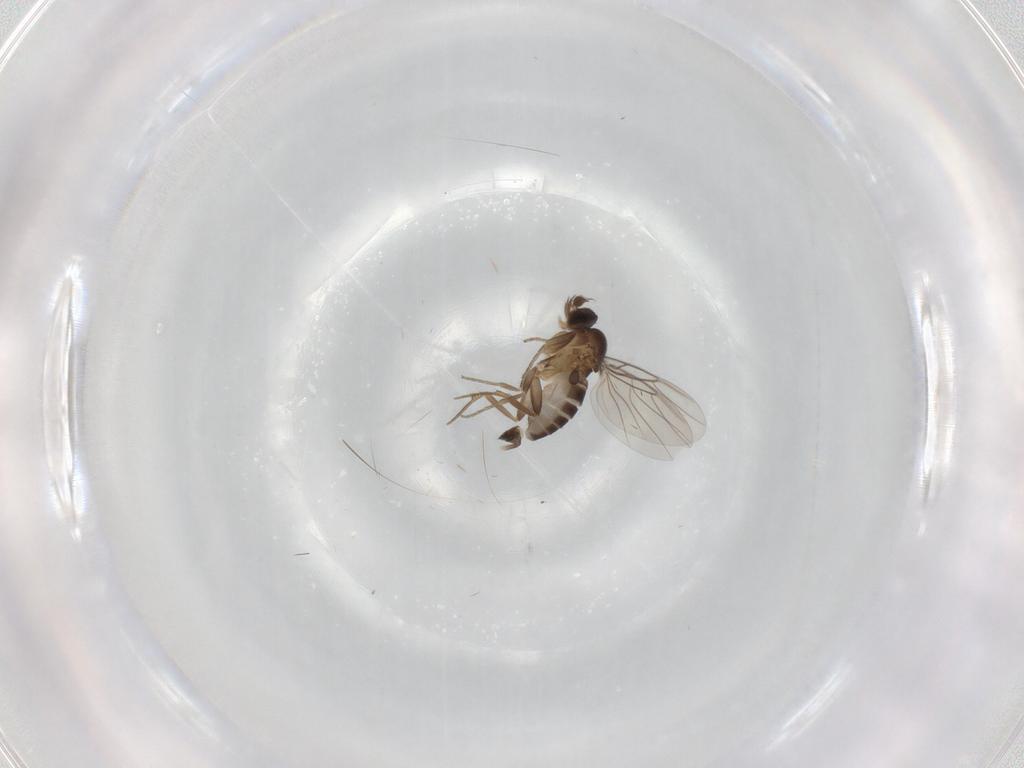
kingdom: Animalia
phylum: Arthropoda
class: Insecta
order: Diptera
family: Phoridae
